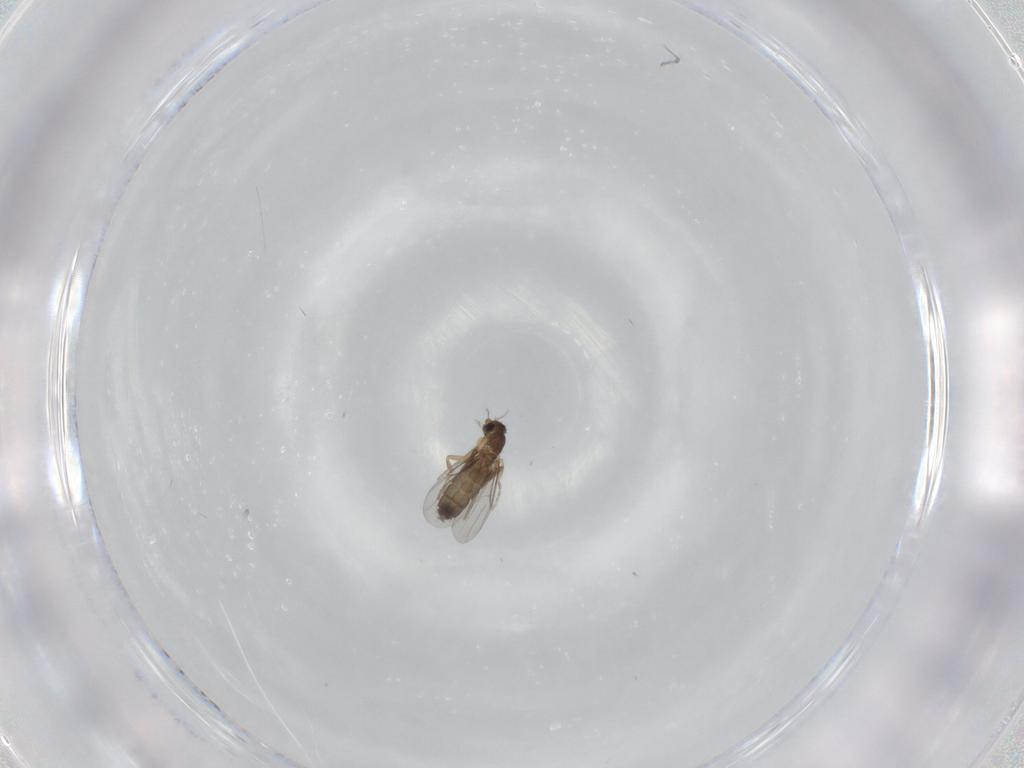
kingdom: Animalia
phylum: Arthropoda
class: Insecta
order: Diptera
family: Phoridae
